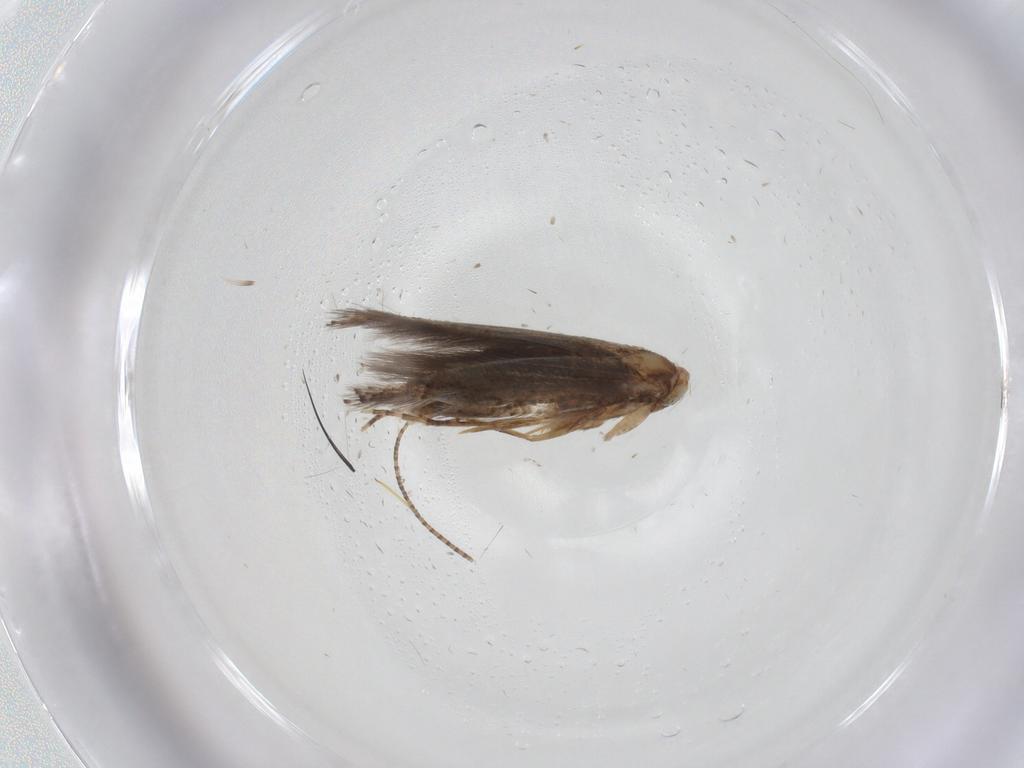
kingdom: Animalia
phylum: Arthropoda
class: Insecta
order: Lepidoptera
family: Bucculatricidae
